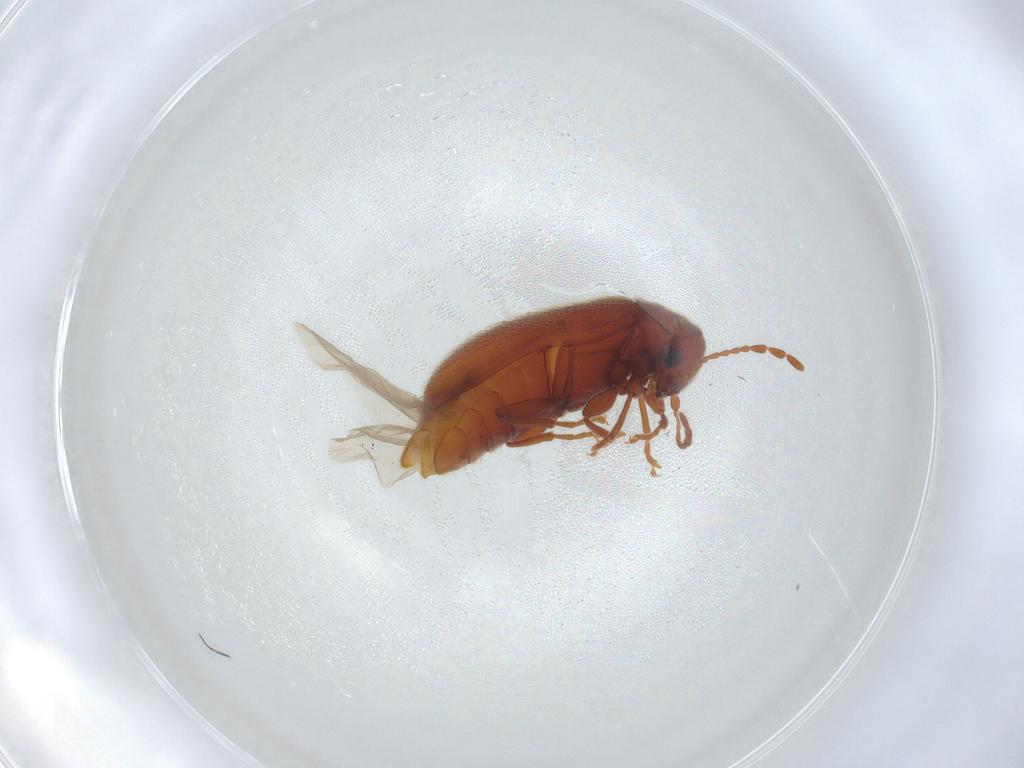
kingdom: Animalia
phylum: Arthropoda
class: Insecta
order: Coleoptera
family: Ptinidae
